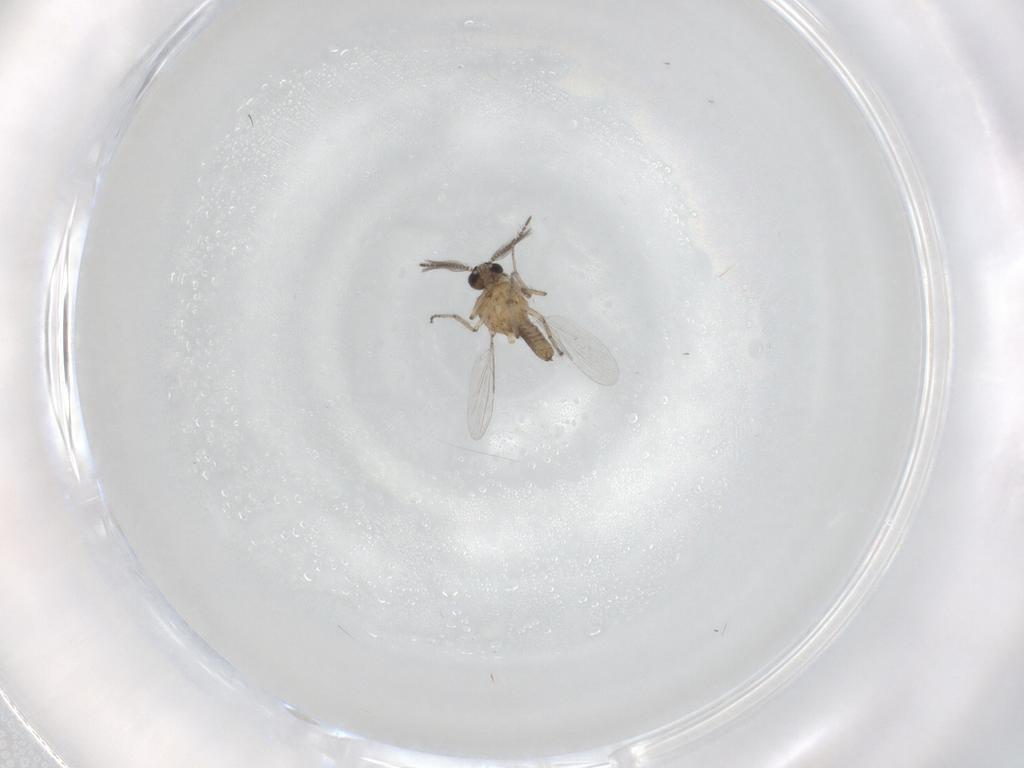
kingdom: Animalia
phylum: Arthropoda
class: Insecta
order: Diptera
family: Ceratopogonidae
